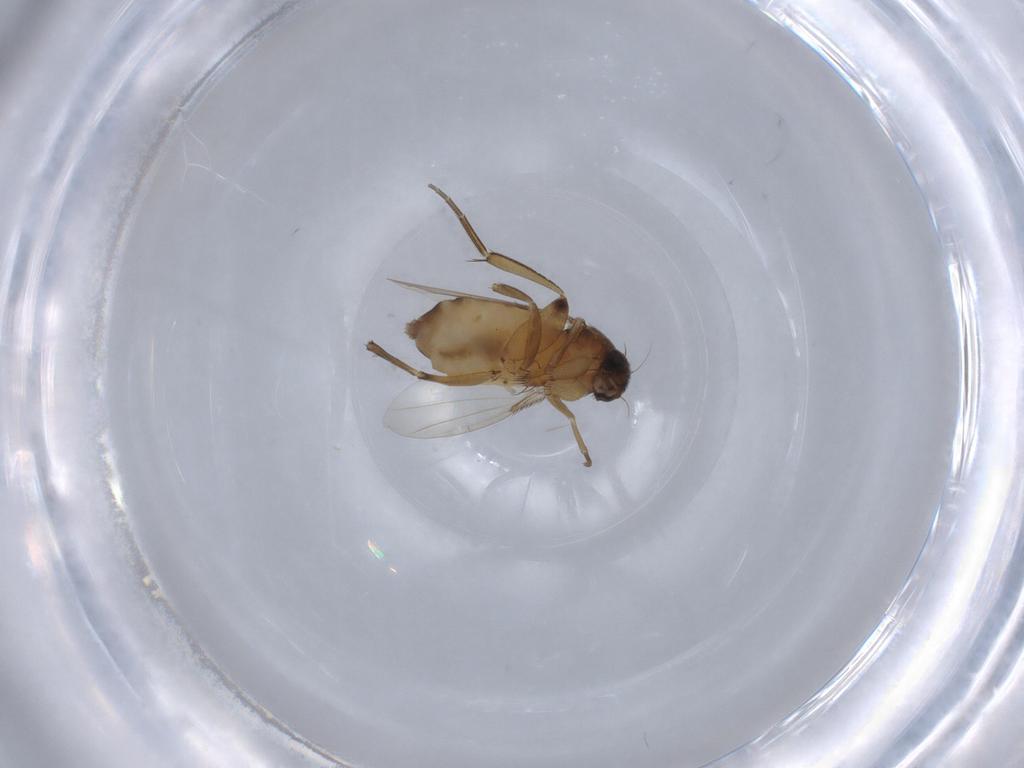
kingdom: Animalia
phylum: Arthropoda
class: Insecta
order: Diptera
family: Phoridae
